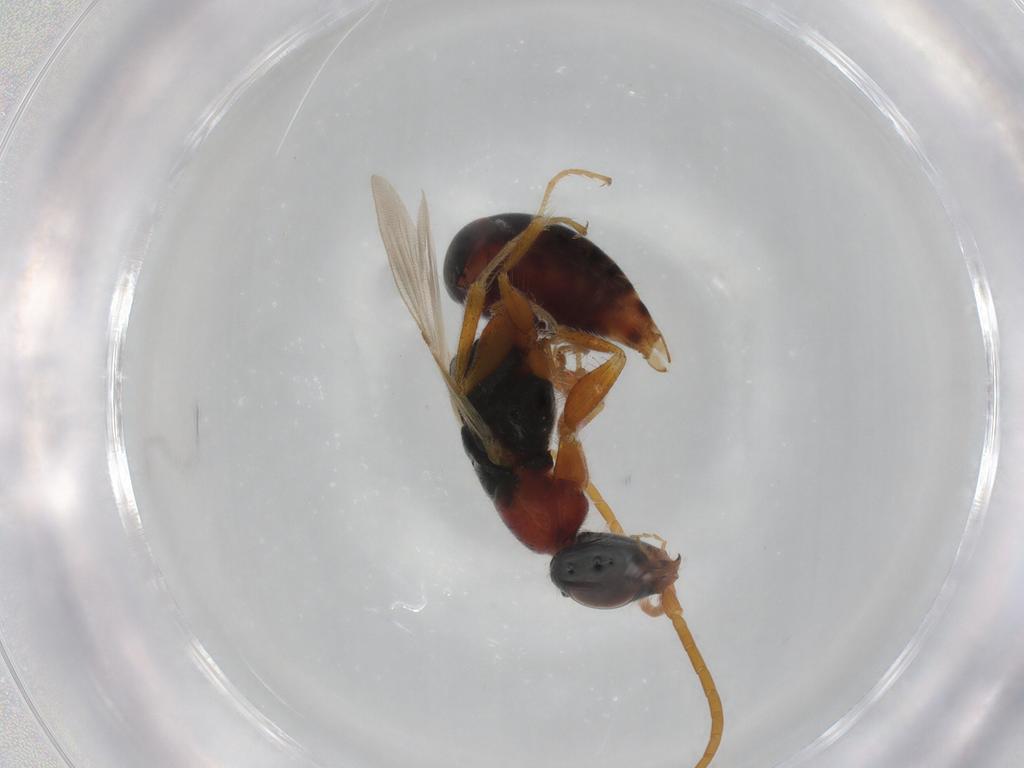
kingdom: Animalia
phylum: Arthropoda
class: Insecta
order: Hymenoptera
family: Bethylidae
